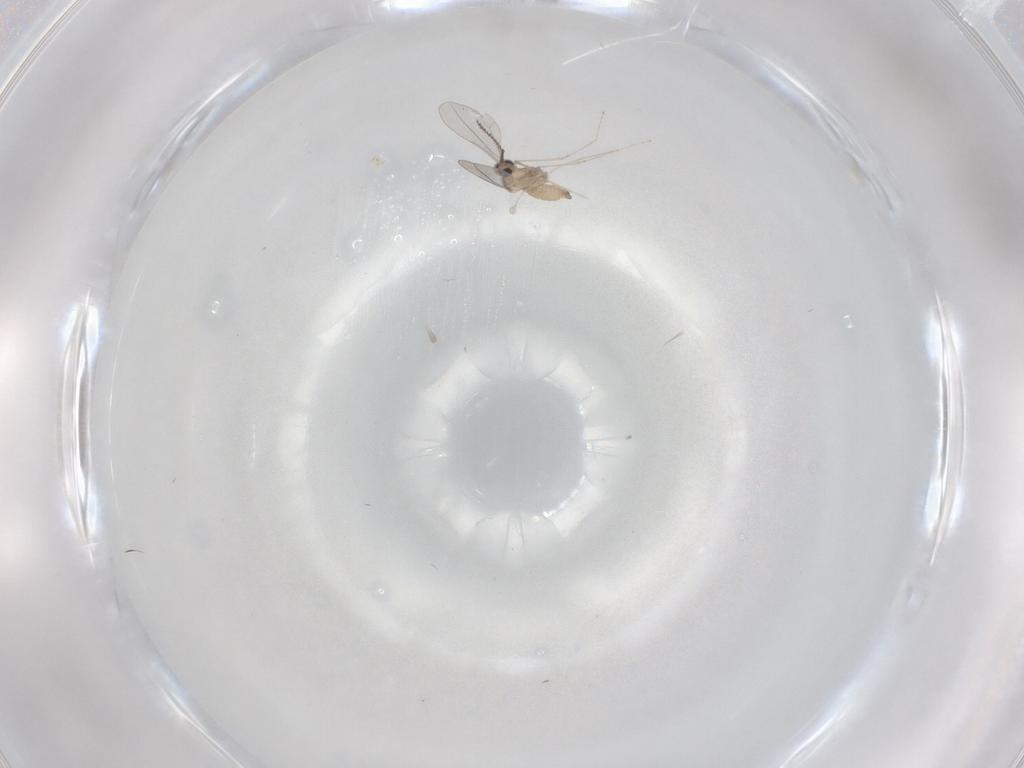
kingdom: Animalia
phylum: Arthropoda
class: Insecta
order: Diptera
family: Cecidomyiidae
